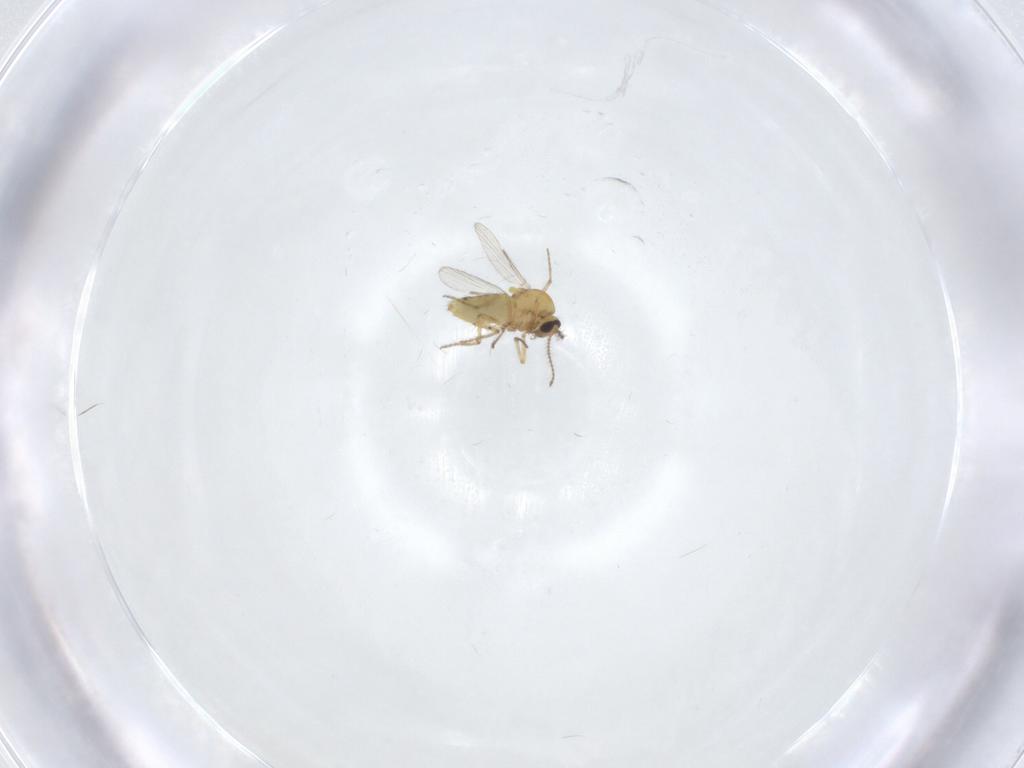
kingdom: Animalia
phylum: Arthropoda
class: Insecta
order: Diptera
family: Ceratopogonidae
